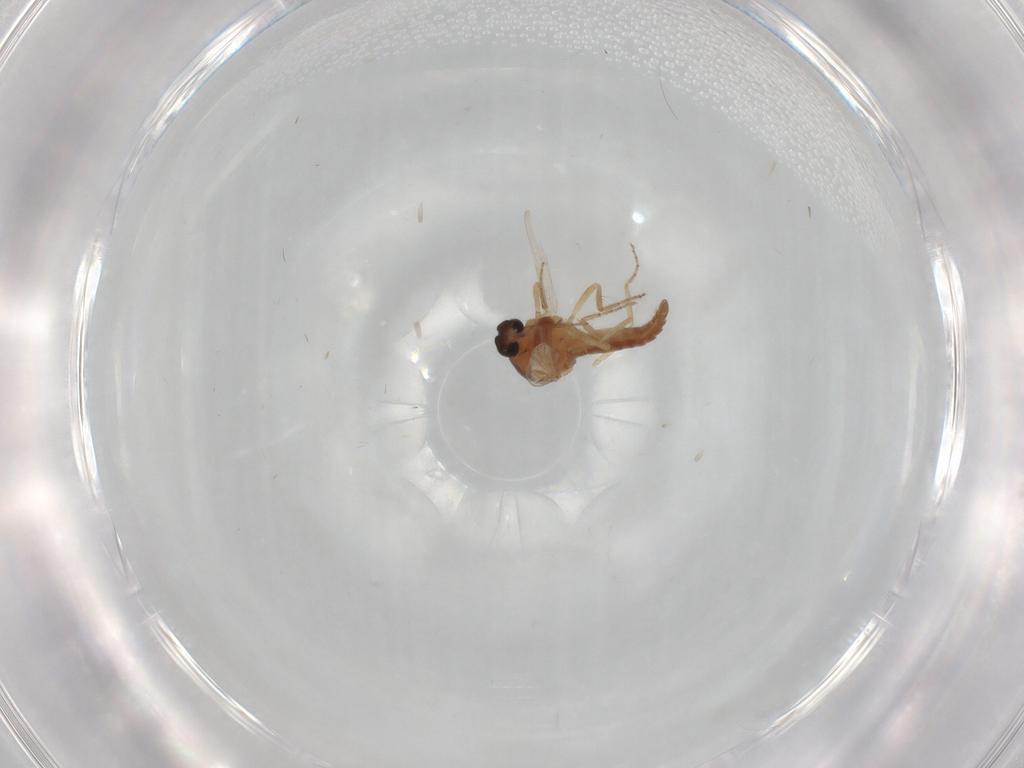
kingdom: Animalia
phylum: Arthropoda
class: Insecta
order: Diptera
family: Ceratopogonidae
